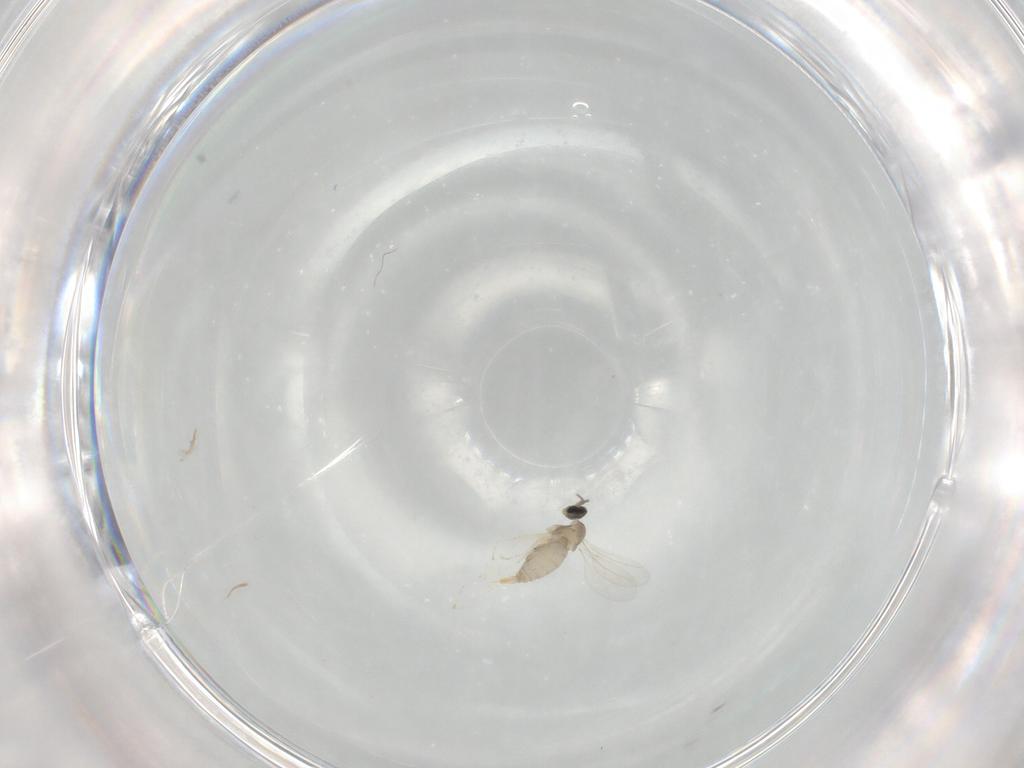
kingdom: Animalia
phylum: Arthropoda
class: Insecta
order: Diptera
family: Cecidomyiidae
